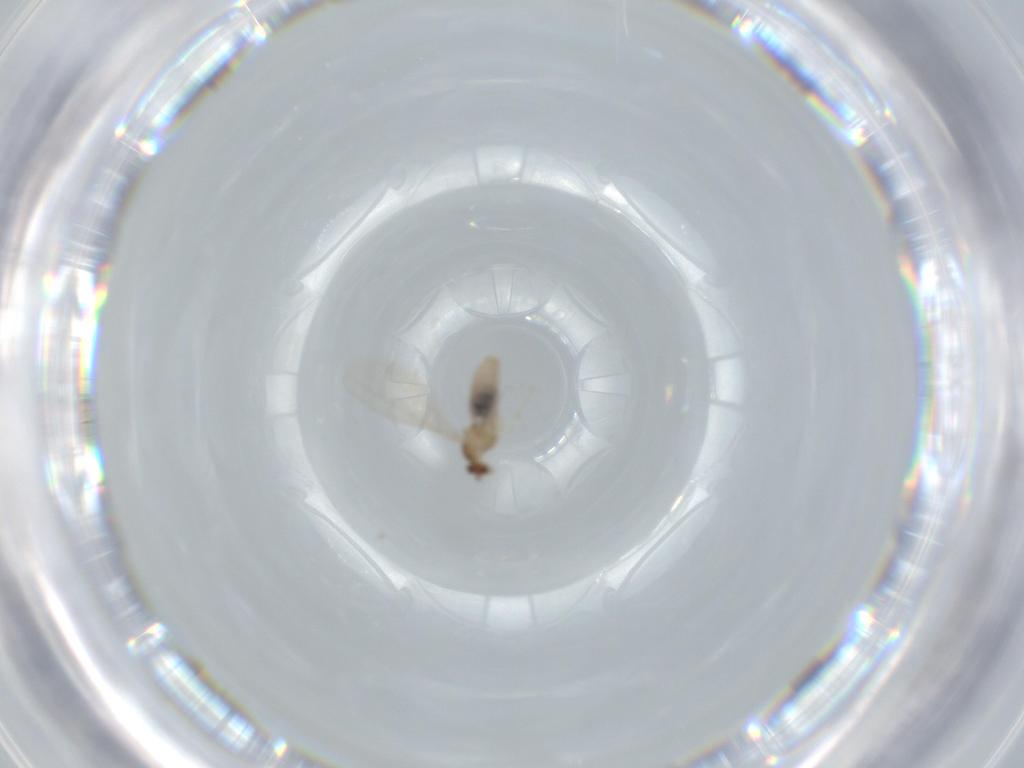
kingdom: Animalia
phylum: Arthropoda
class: Insecta
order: Diptera
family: Cecidomyiidae
